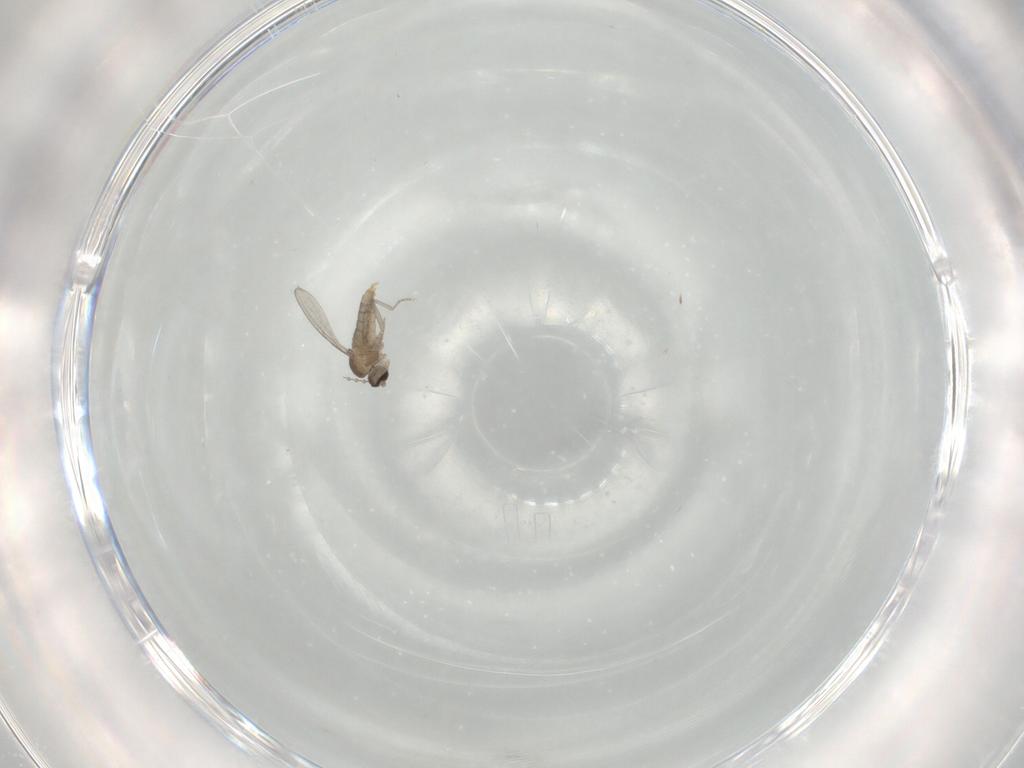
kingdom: Animalia
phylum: Arthropoda
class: Insecta
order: Diptera
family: Cecidomyiidae
